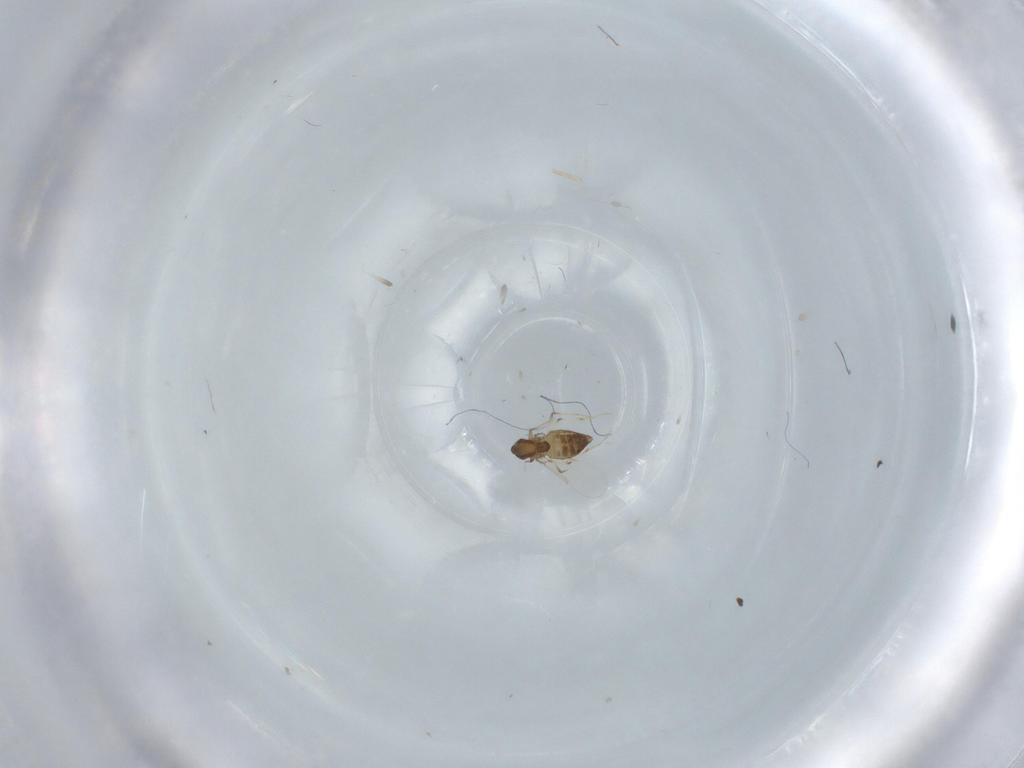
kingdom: Animalia
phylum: Arthropoda
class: Insecta
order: Diptera
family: Chironomidae
